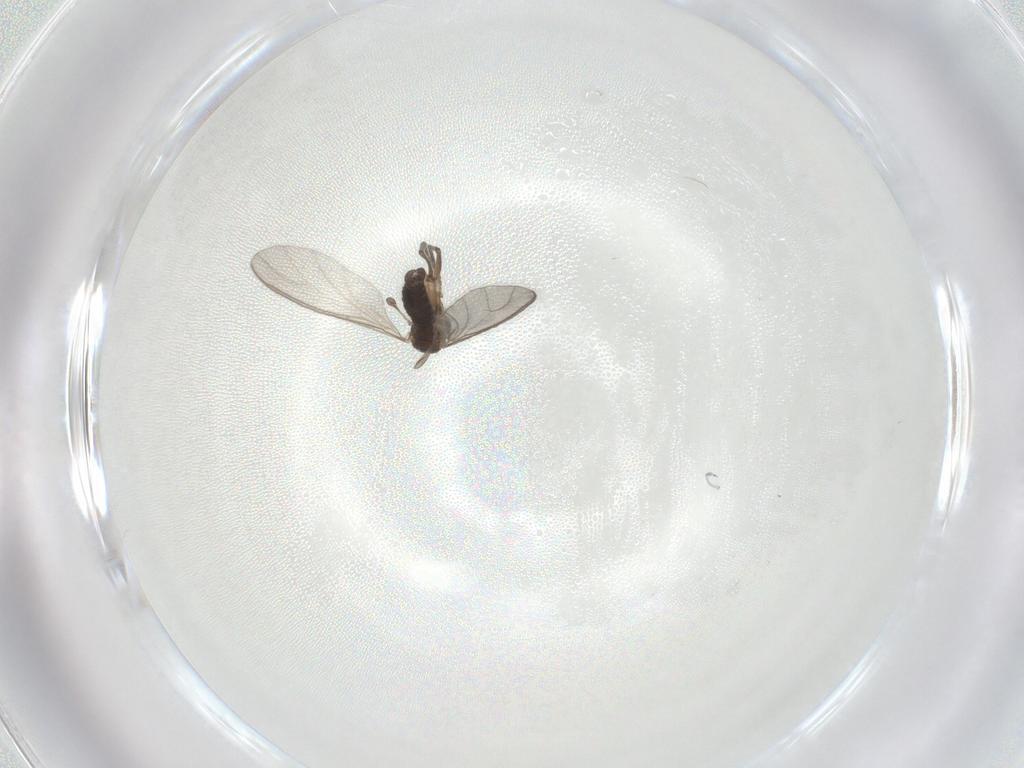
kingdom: Animalia
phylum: Arthropoda
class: Insecta
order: Diptera
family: Sciaridae
